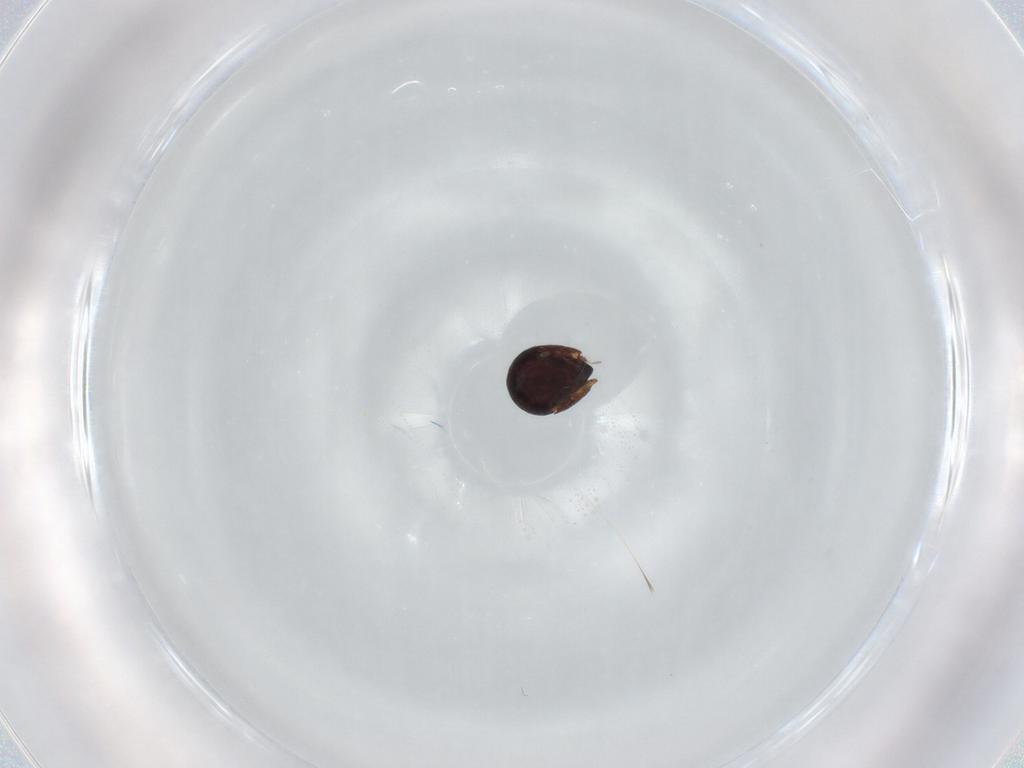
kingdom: Animalia
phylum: Arthropoda
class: Arachnida
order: Sarcoptiformes
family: Ceratozetidae
